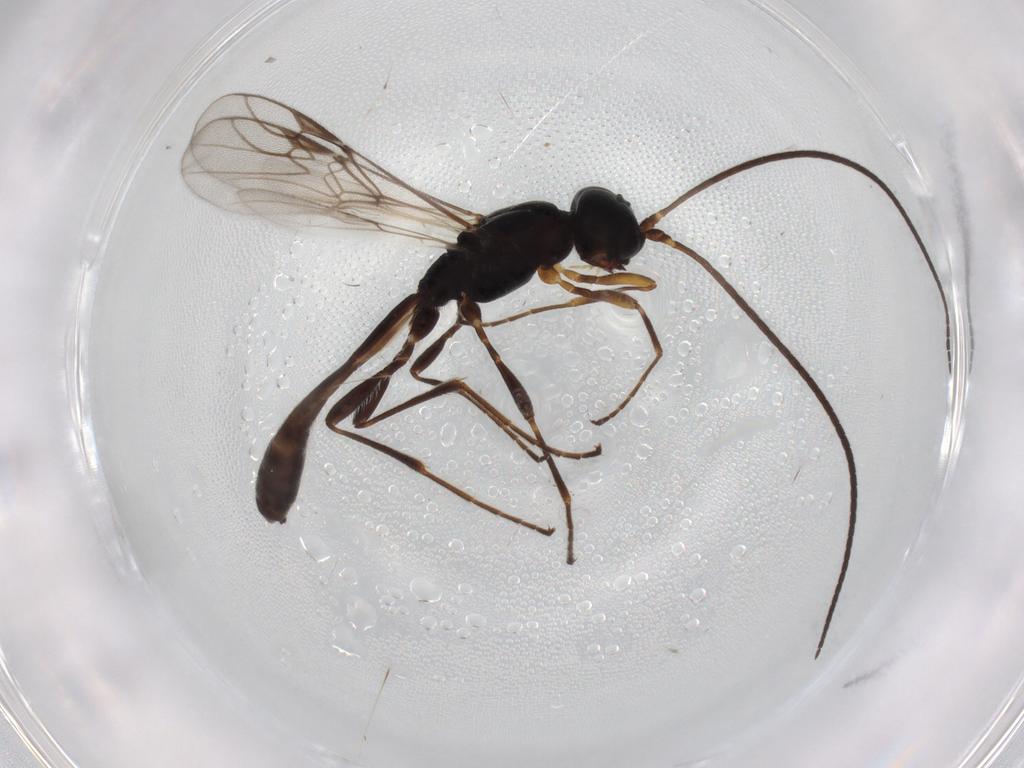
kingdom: Animalia
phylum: Arthropoda
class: Insecta
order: Hymenoptera
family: Braconidae
